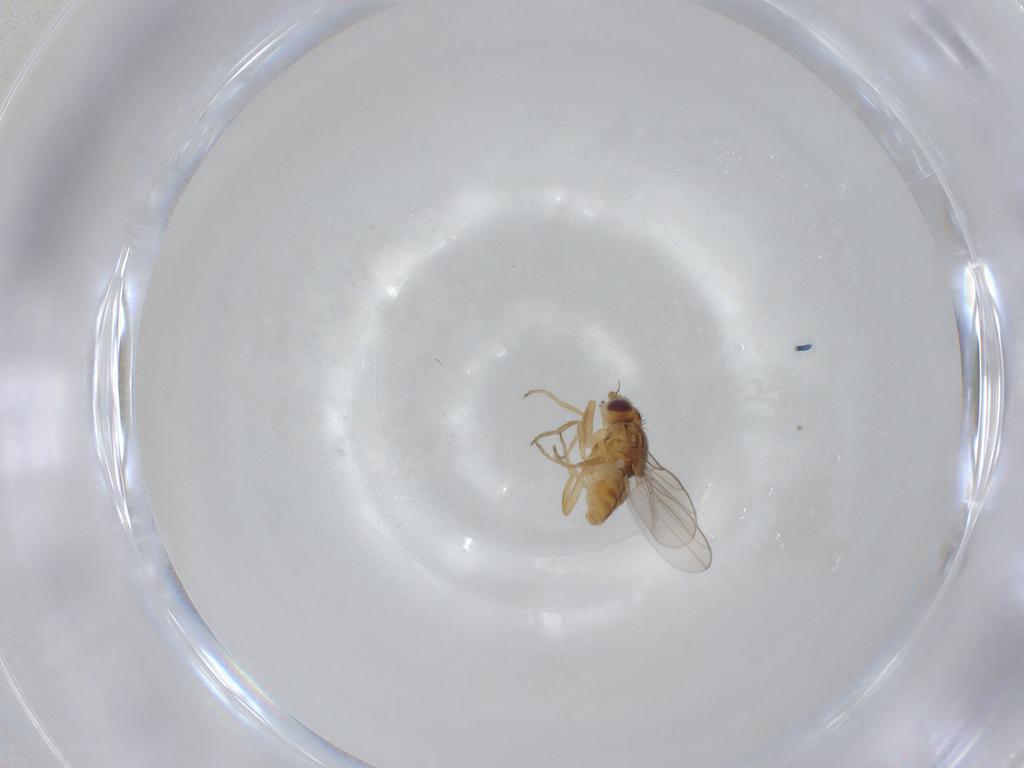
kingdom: Animalia
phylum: Arthropoda
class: Insecta
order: Diptera
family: Chloropidae
